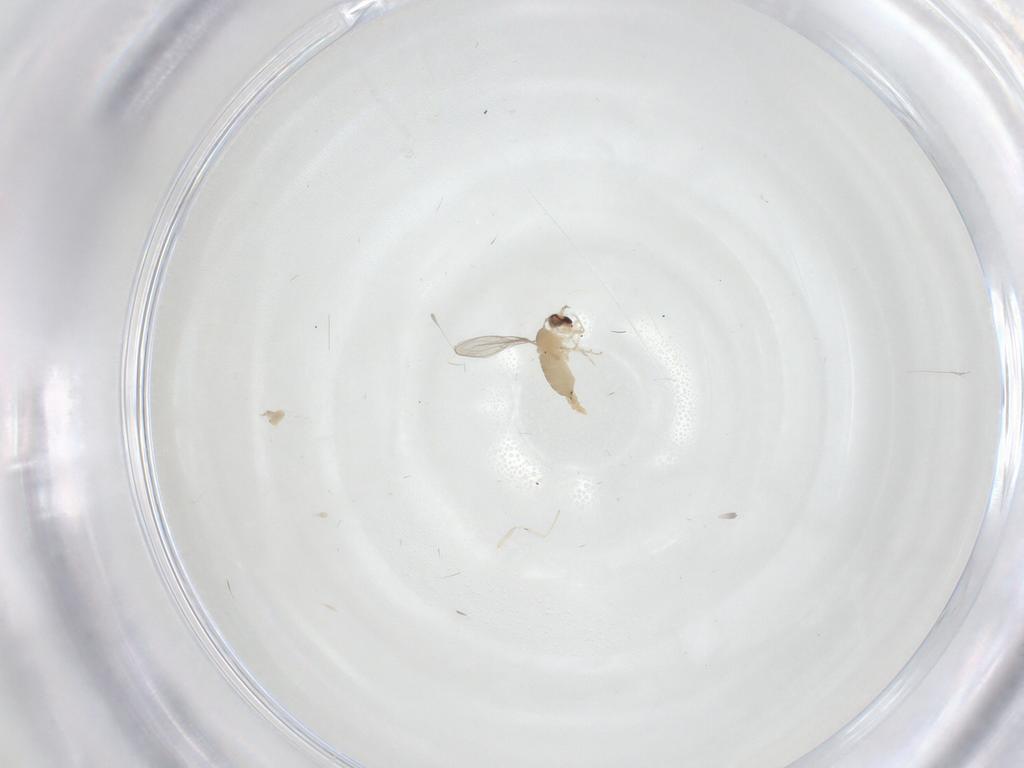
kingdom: Animalia
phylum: Arthropoda
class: Insecta
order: Diptera
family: Cecidomyiidae
